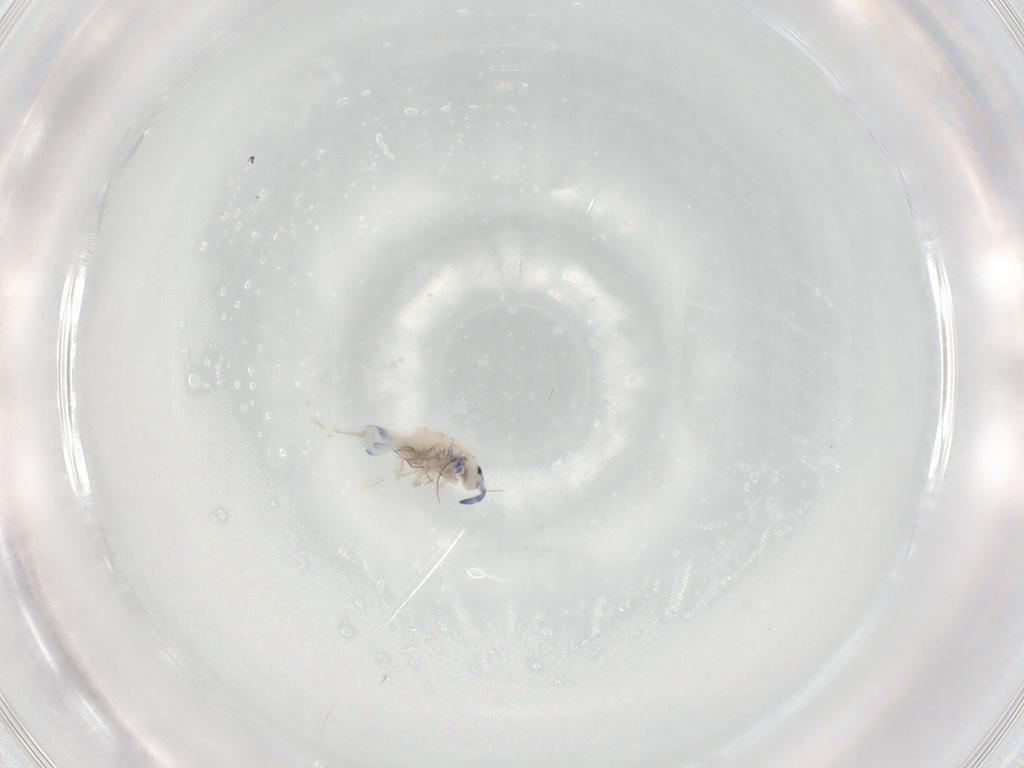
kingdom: Animalia
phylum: Arthropoda
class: Collembola
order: Entomobryomorpha
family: Entomobryidae
